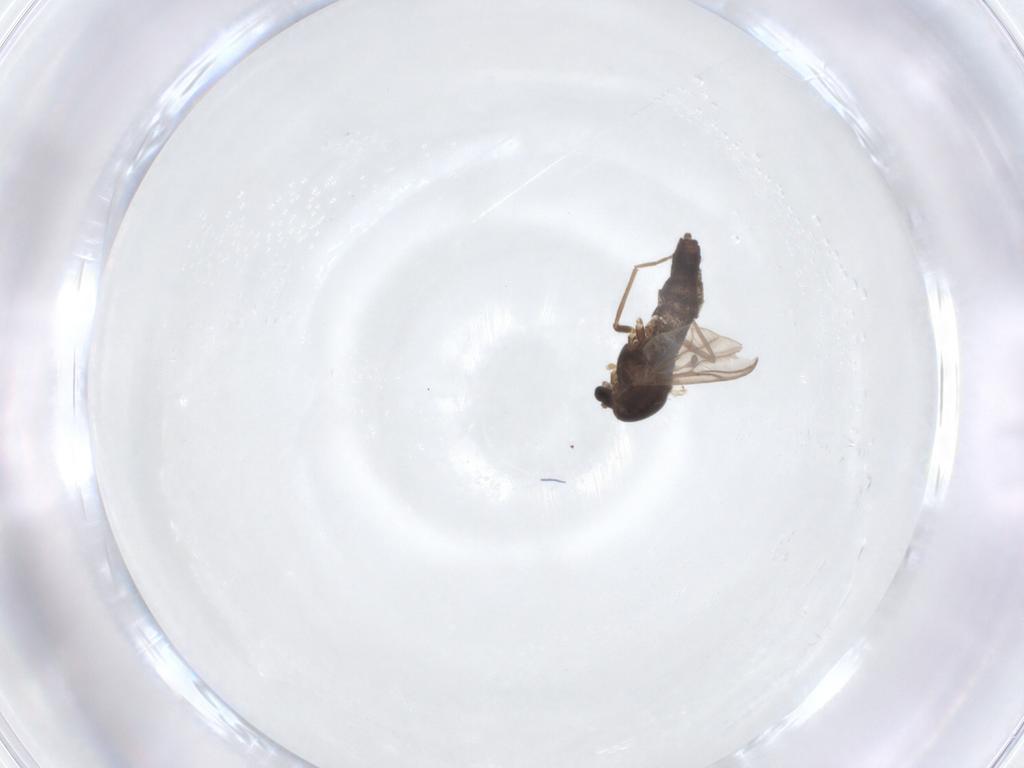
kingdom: Animalia
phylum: Arthropoda
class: Insecta
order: Diptera
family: Chironomidae
